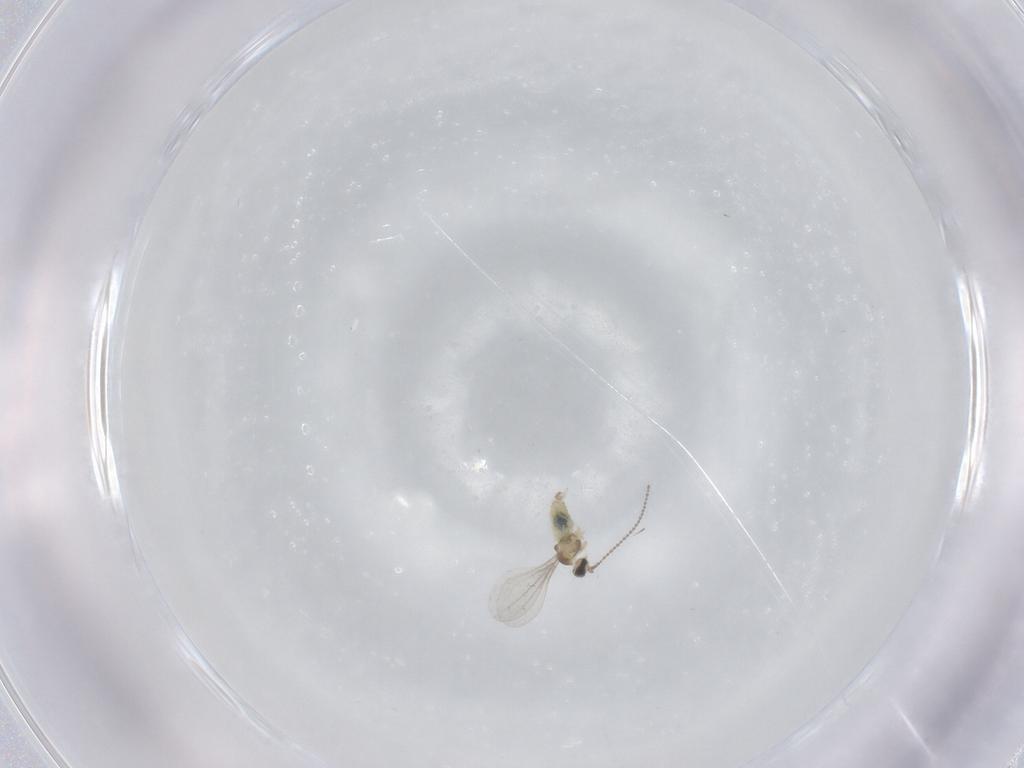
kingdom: Animalia
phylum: Arthropoda
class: Insecta
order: Diptera
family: Cecidomyiidae
